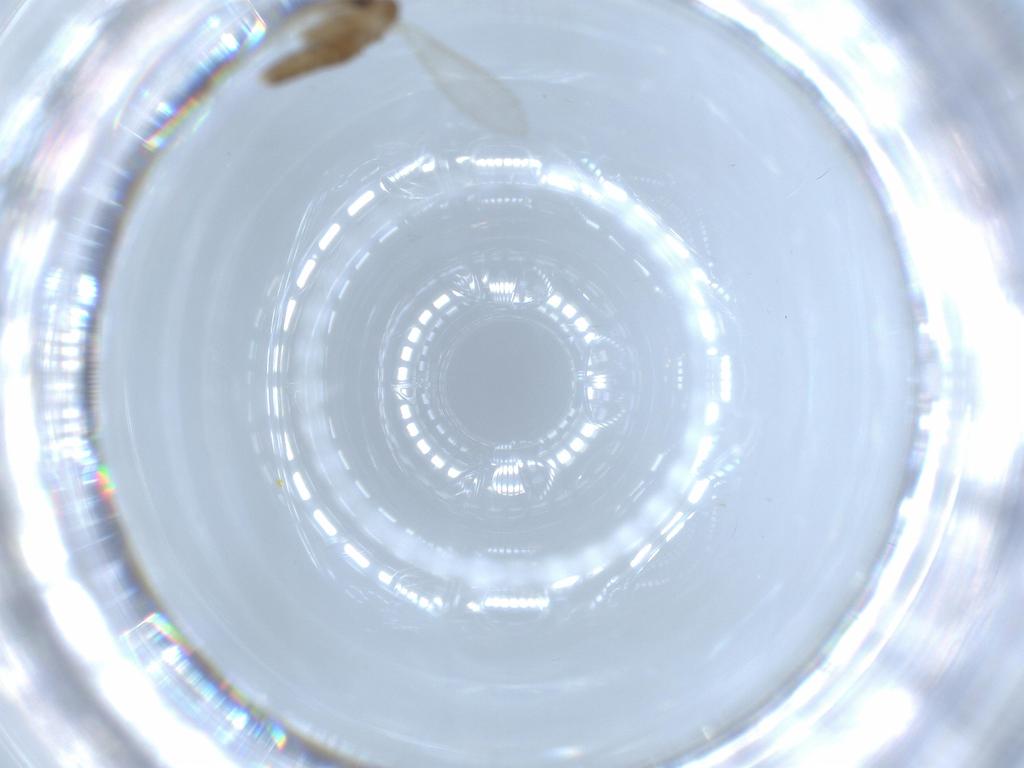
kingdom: Animalia
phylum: Arthropoda
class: Insecta
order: Diptera
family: Psychodidae
